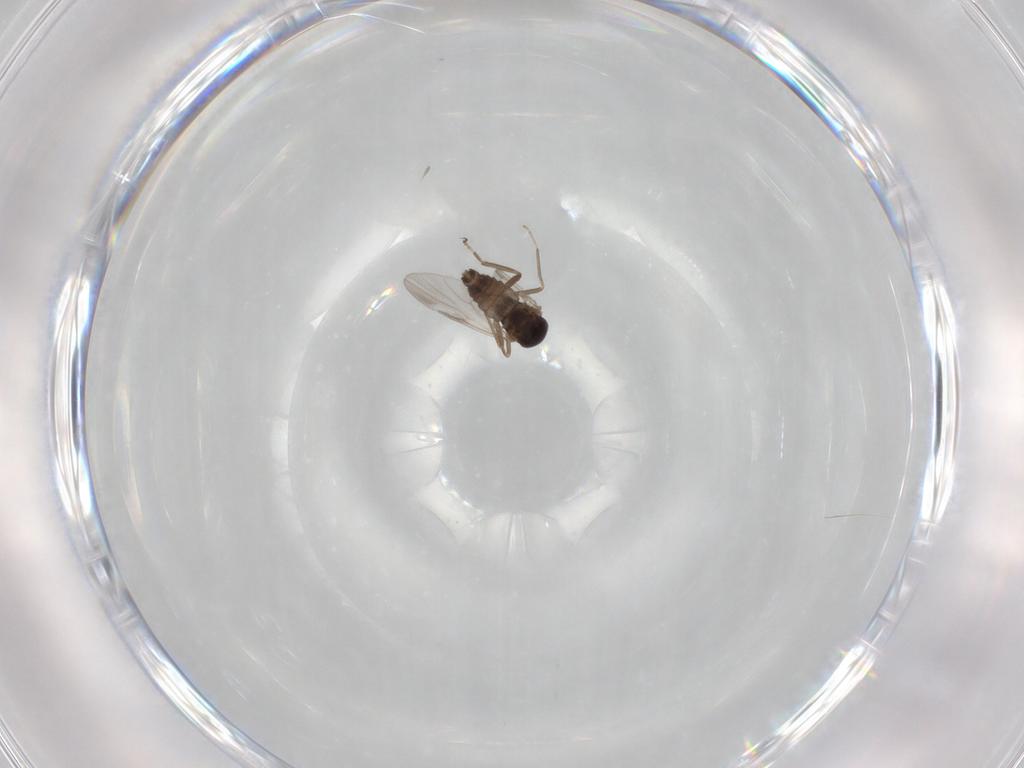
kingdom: Animalia
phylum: Arthropoda
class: Insecta
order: Diptera
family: Ceratopogonidae
